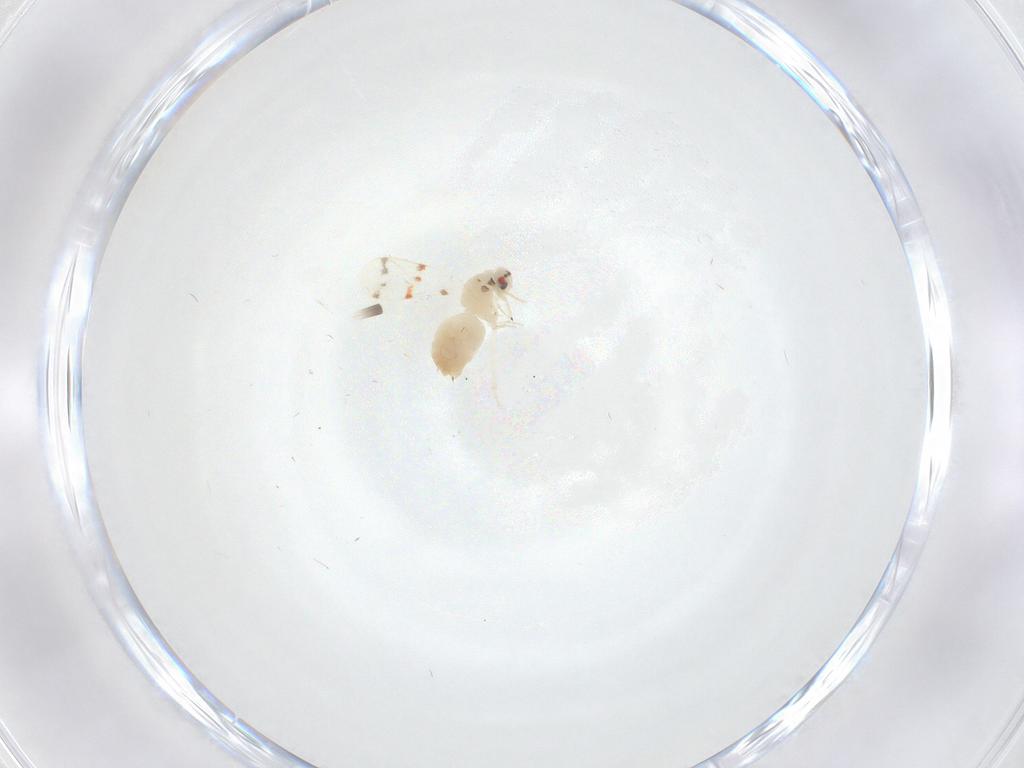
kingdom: Animalia
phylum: Arthropoda
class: Insecta
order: Hemiptera
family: Aleyrodidae
